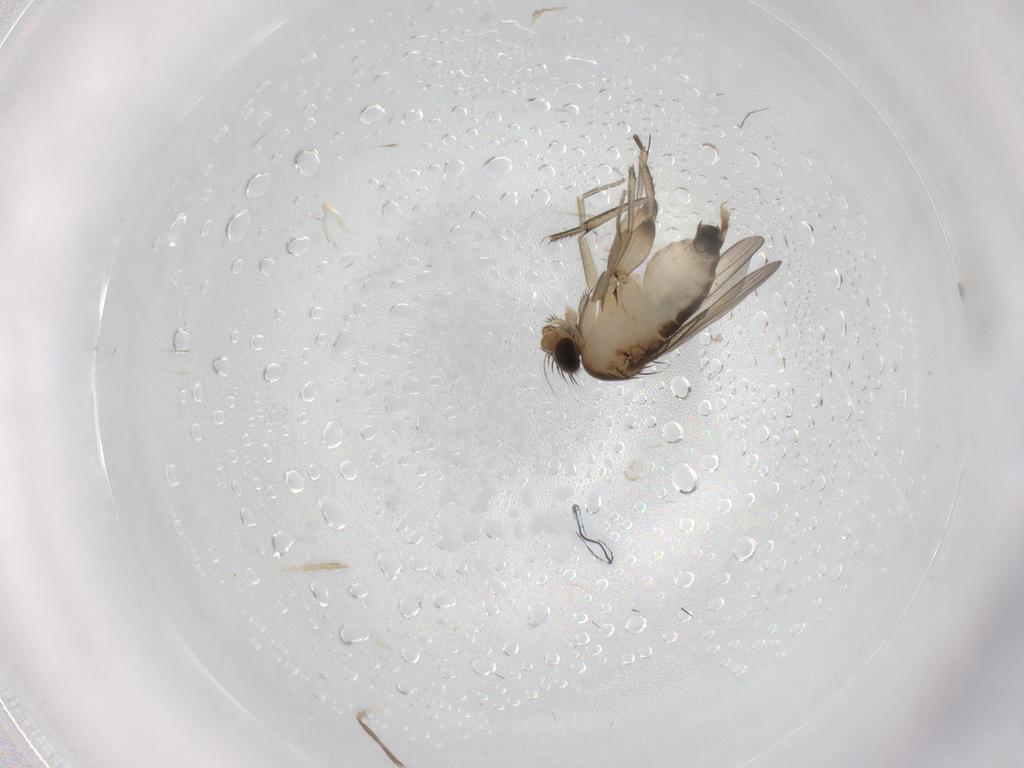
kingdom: Animalia
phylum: Arthropoda
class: Insecta
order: Diptera
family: Phoridae
